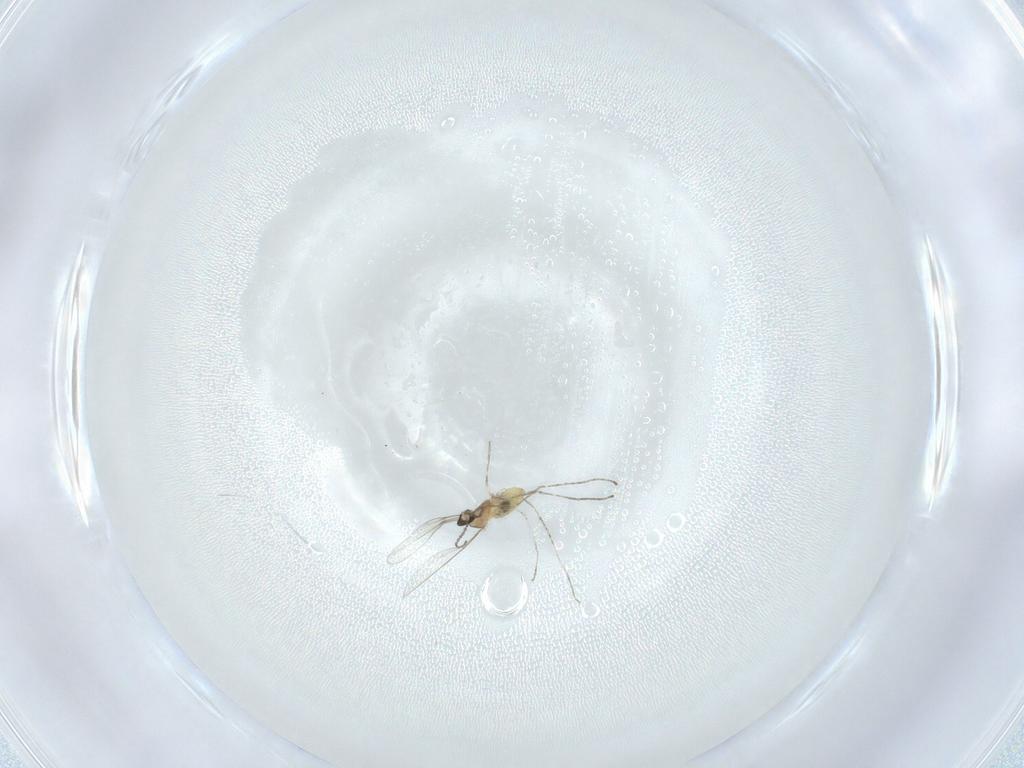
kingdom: Animalia
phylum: Arthropoda
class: Insecta
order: Diptera
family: Cecidomyiidae
